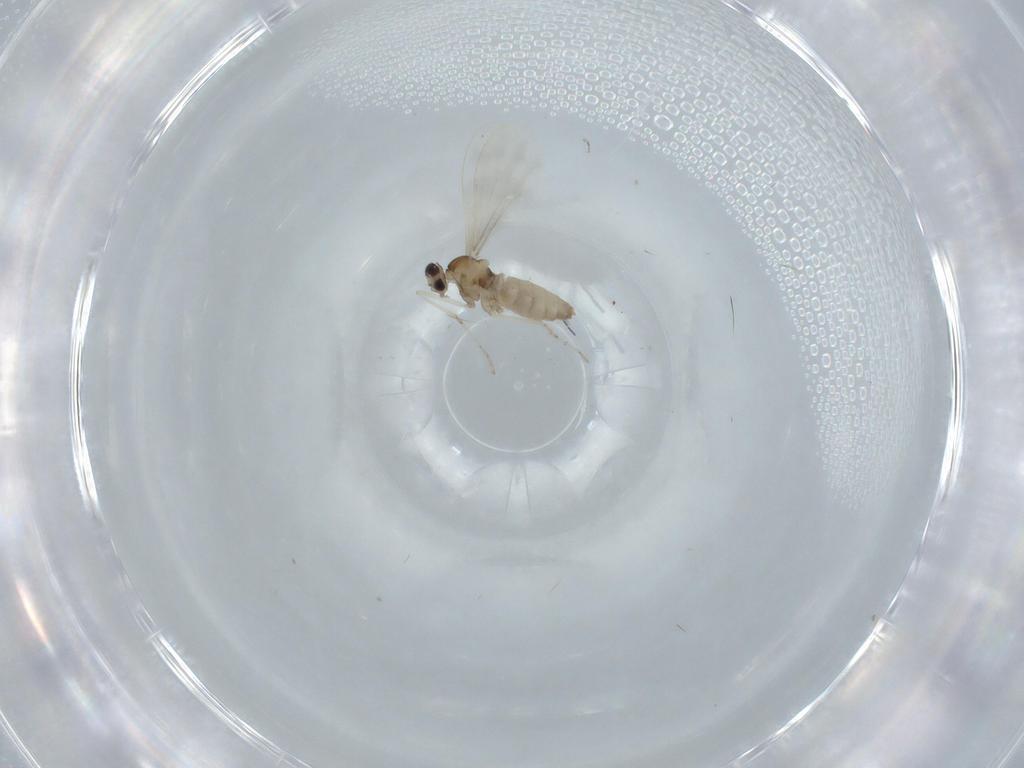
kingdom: Animalia
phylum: Arthropoda
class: Insecta
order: Diptera
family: Cecidomyiidae
